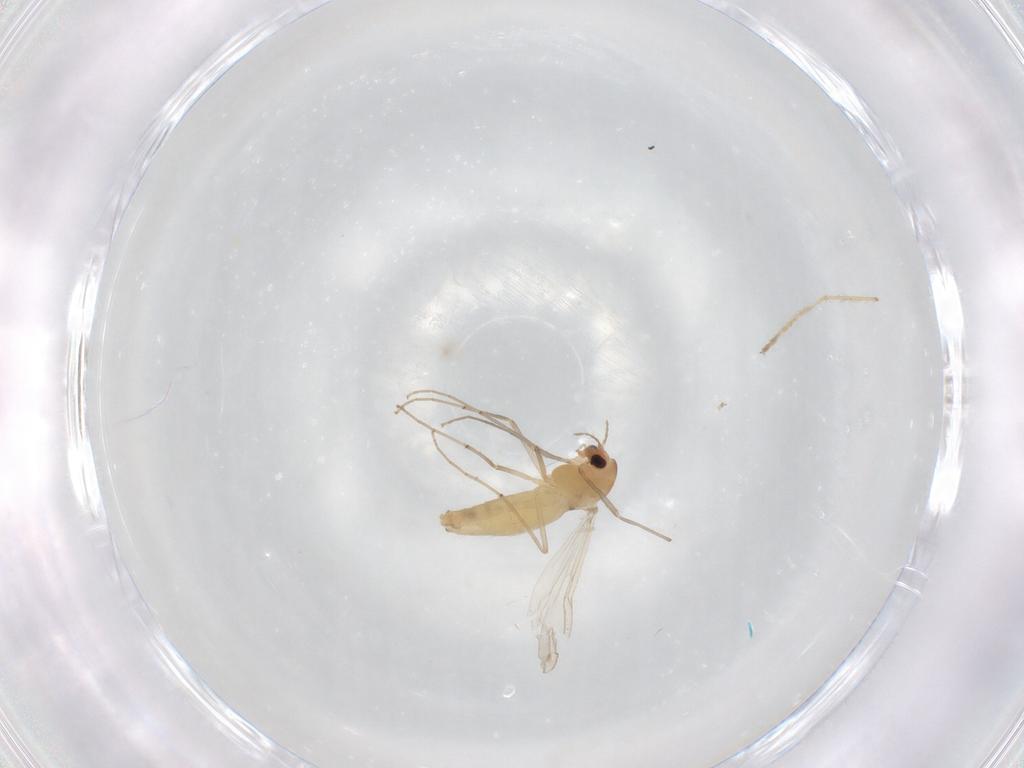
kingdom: Animalia
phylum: Arthropoda
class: Insecta
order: Diptera
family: Chironomidae
